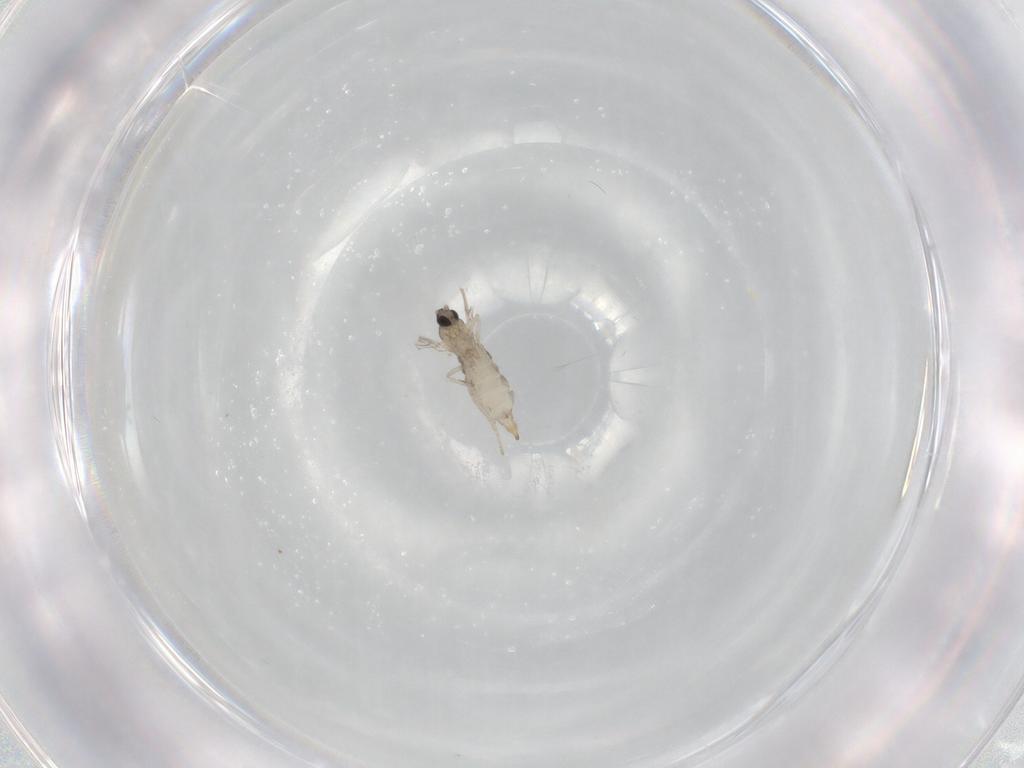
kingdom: Animalia
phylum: Arthropoda
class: Insecta
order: Diptera
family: Cecidomyiidae
